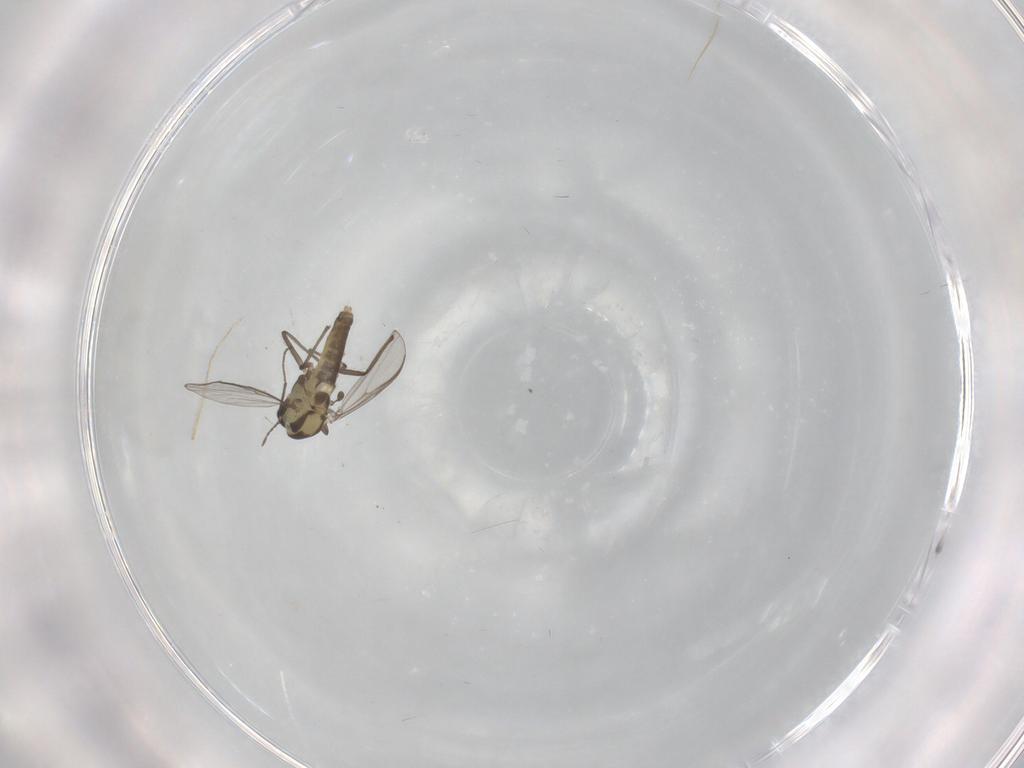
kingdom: Animalia
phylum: Arthropoda
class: Insecta
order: Diptera
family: Chironomidae
